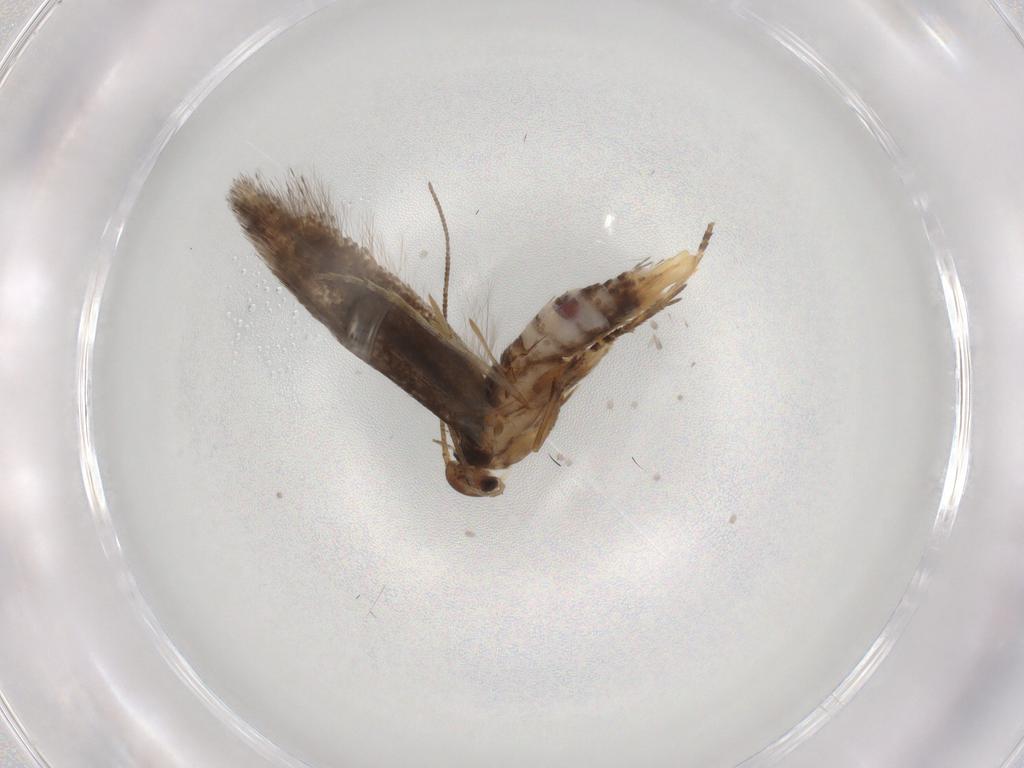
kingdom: Animalia
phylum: Arthropoda
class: Insecta
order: Lepidoptera
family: Elachistidae
